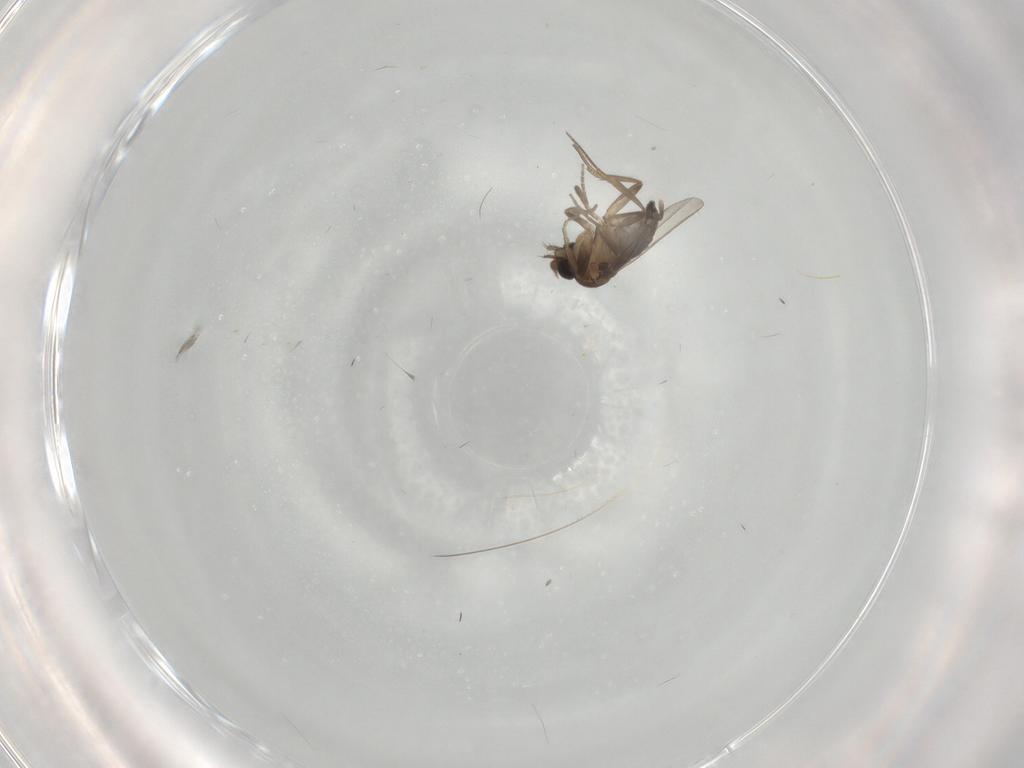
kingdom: Animalia
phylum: Arthropoda
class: Insecta
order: Diptera
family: Phoridae
